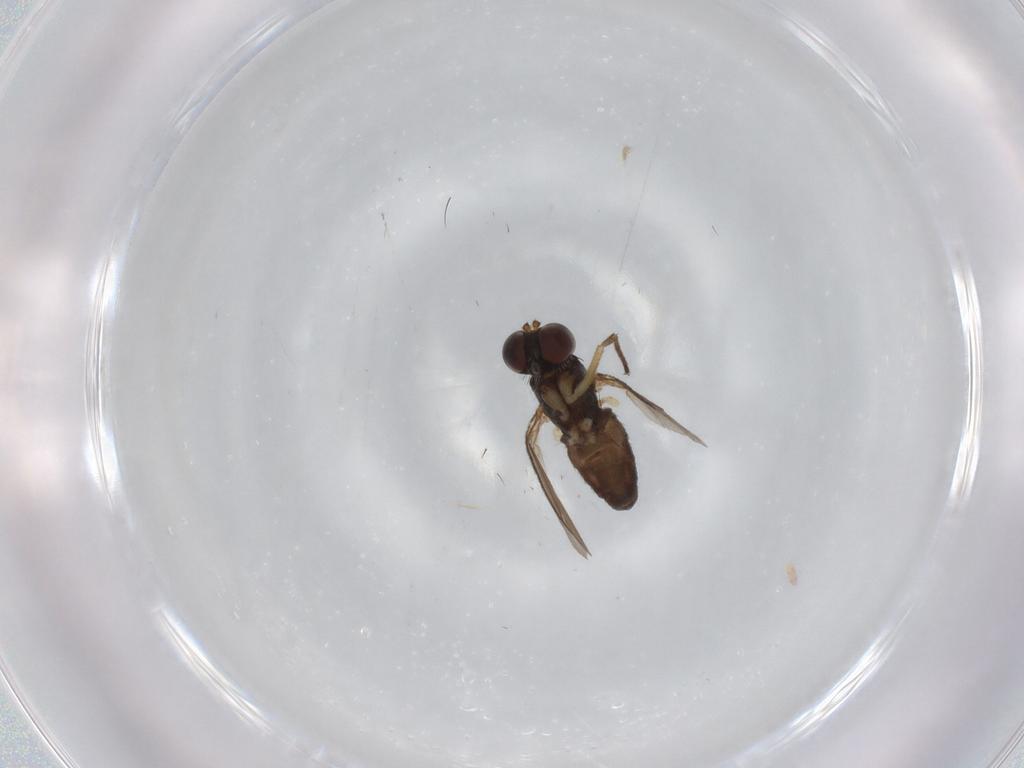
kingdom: Animalia
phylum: Arthropoda
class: Insecta
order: Diptera
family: Dolichopodidae
